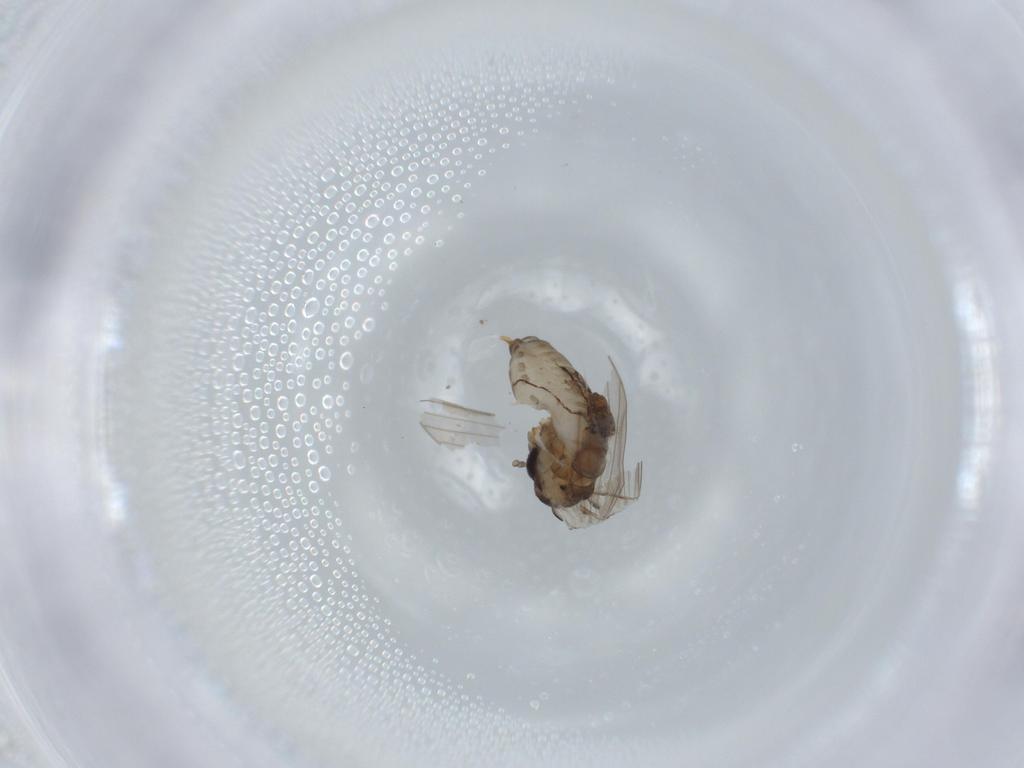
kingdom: Animalia
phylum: Arthropoda
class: Insecta
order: Diptera
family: Psychodidae
